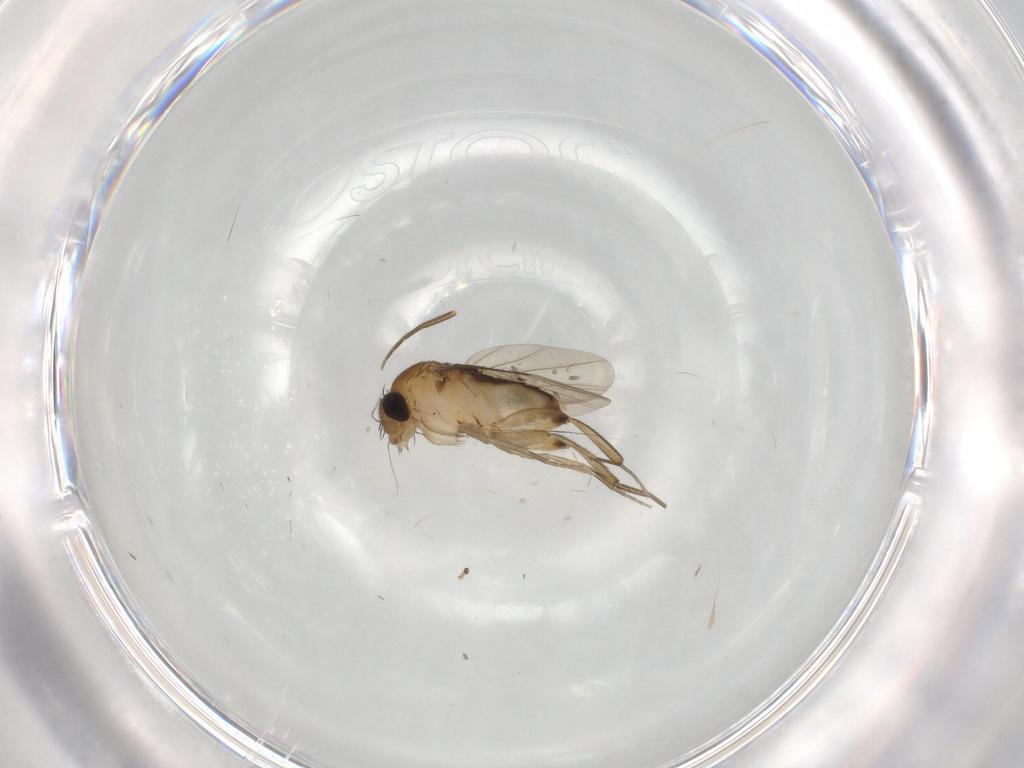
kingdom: Animalia
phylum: Arthropoda
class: Insecta
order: Diptera
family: Phoridae
